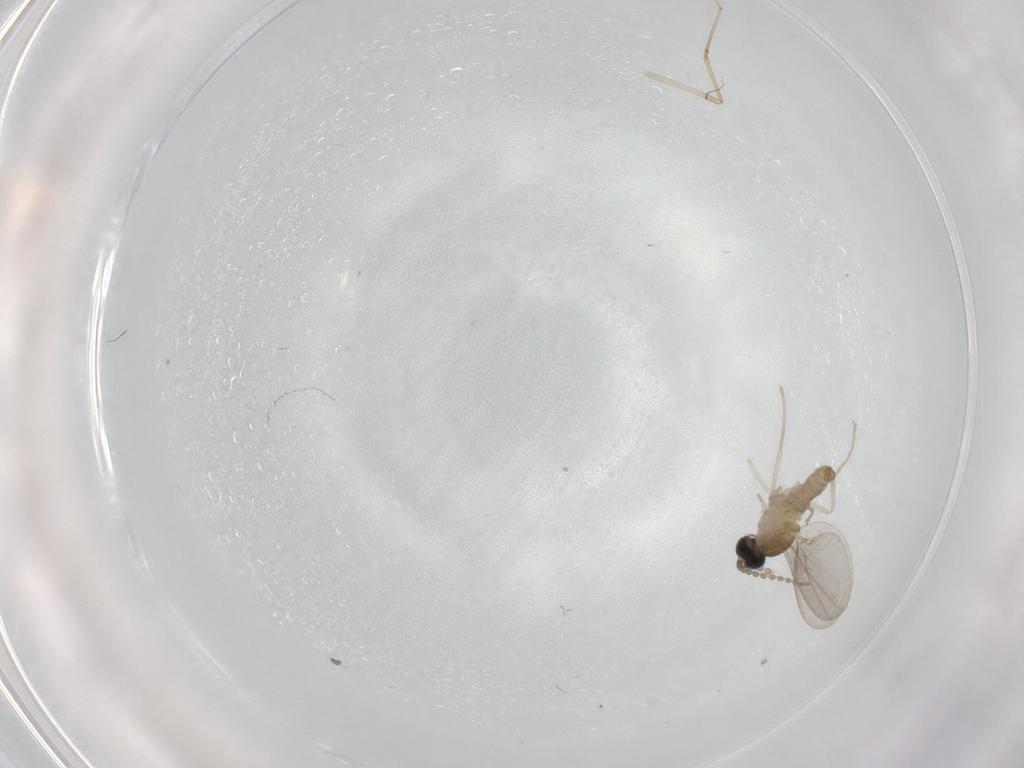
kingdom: Animalia
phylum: Arthropoda
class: Insecta
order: Diptera
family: Cecidomyiidae
